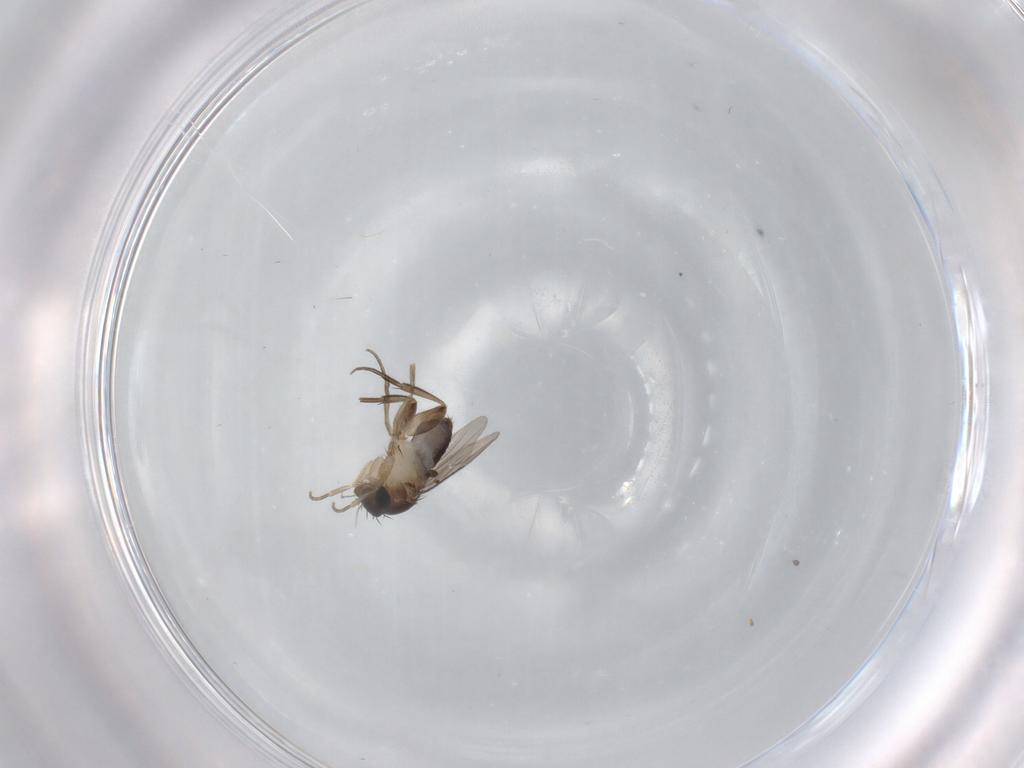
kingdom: Animalia
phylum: Arthropoda
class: Insecta
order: Diptera
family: Phoridae
